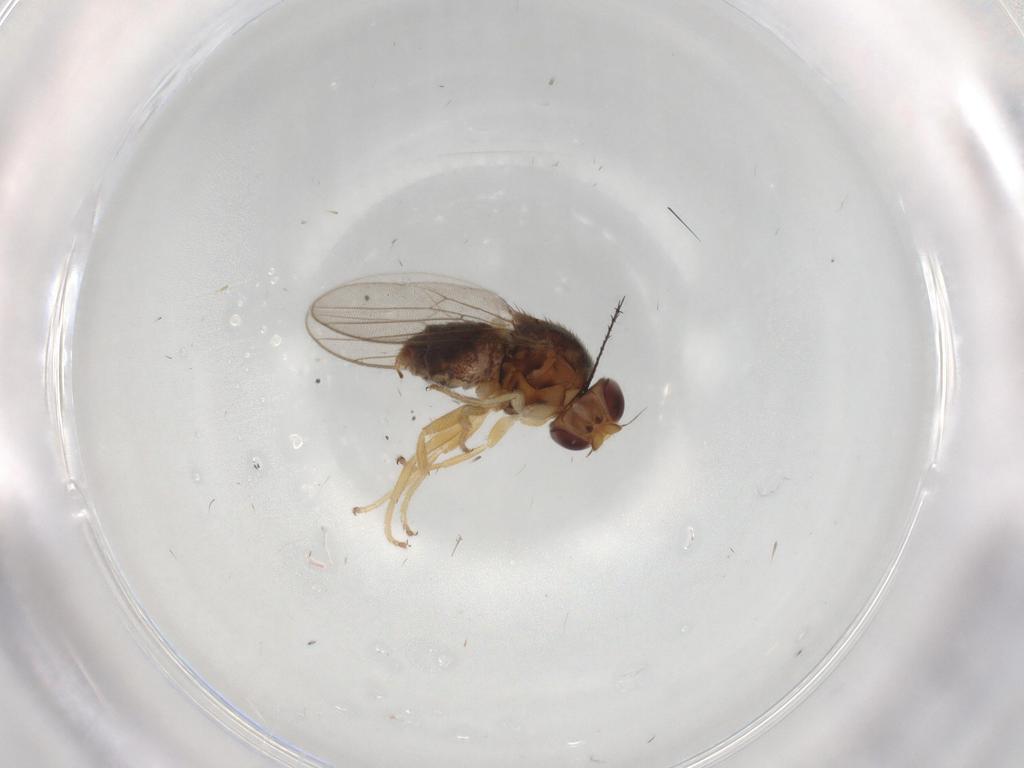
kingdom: Animalia
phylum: Arthropoda
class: Insecta
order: Diptera
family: Chloropidae
